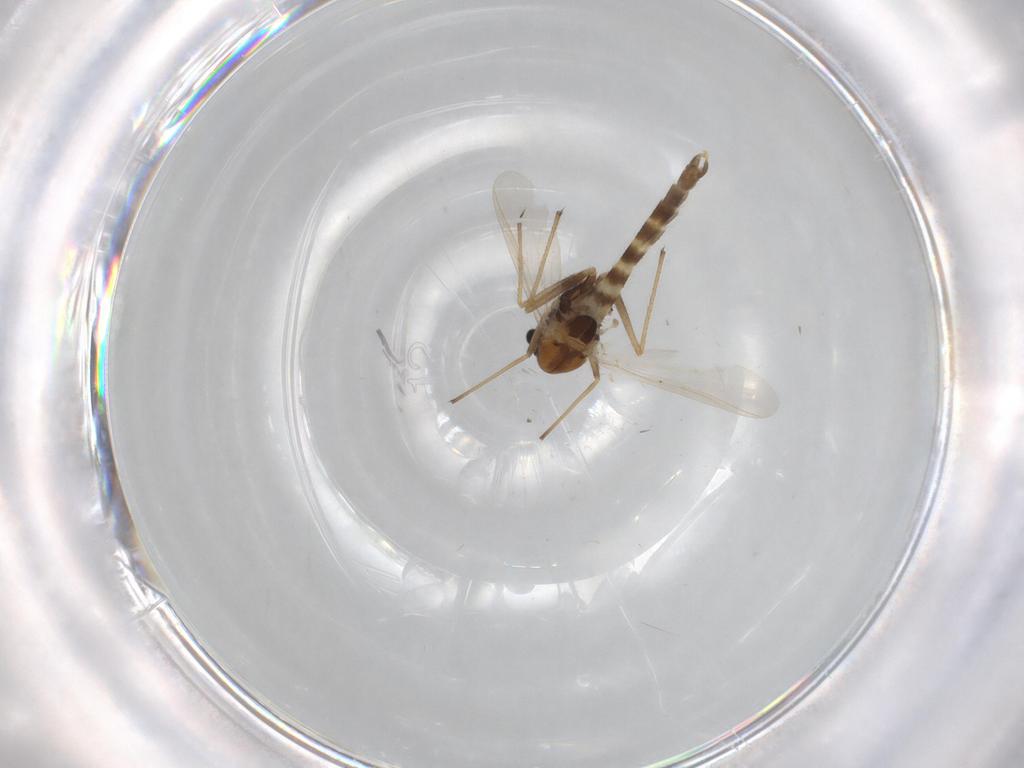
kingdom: Animalia
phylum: Arthropoda
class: Insecta
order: Diptera
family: Chironomidae
